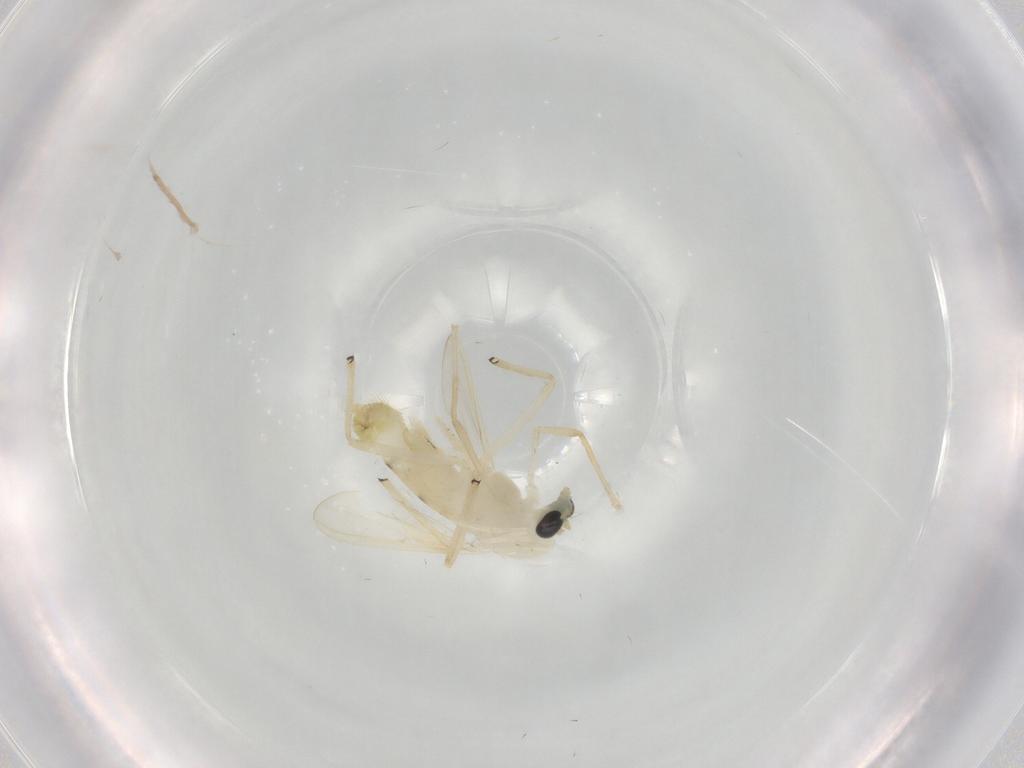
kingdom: Animalia
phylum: Arthropoda
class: Insecta
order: Diptera
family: Chironomidae
